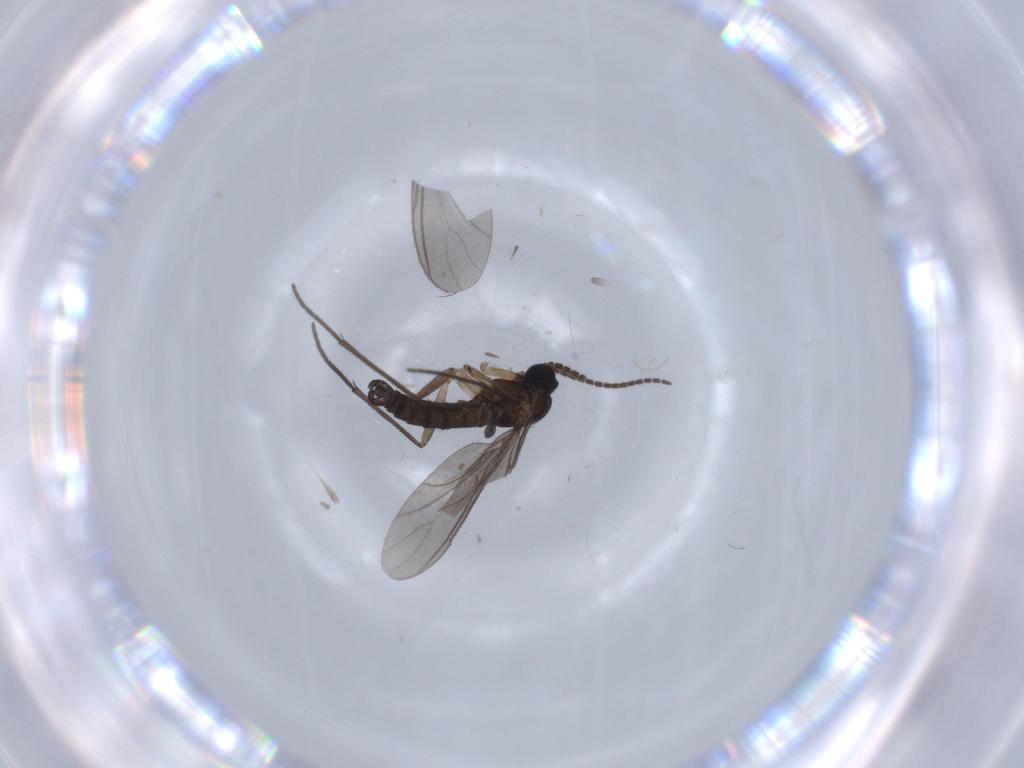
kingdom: Animalia
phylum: Arthropoda
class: Insecta
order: Diptera
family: Sciaridae
